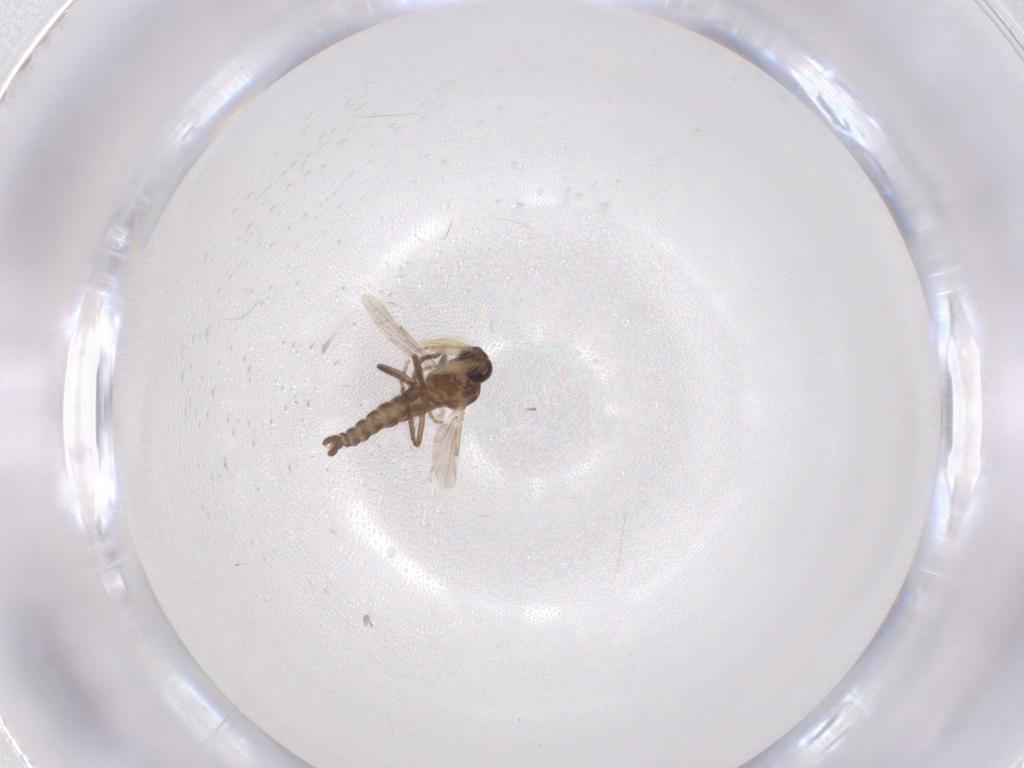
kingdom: Animalia
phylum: Arthropoda
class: Insecta
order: Diptera
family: Ceratopogonidae
